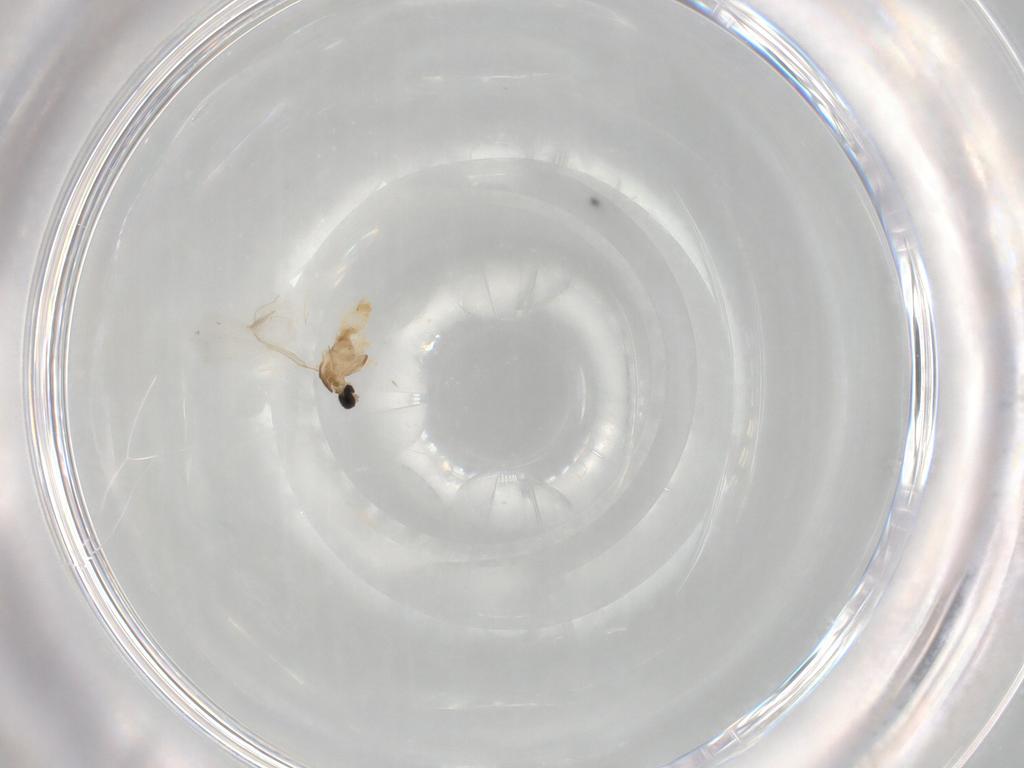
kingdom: Animalia
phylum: Arthropoda
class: Insecta
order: Diptera
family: Cecidomyiidae
